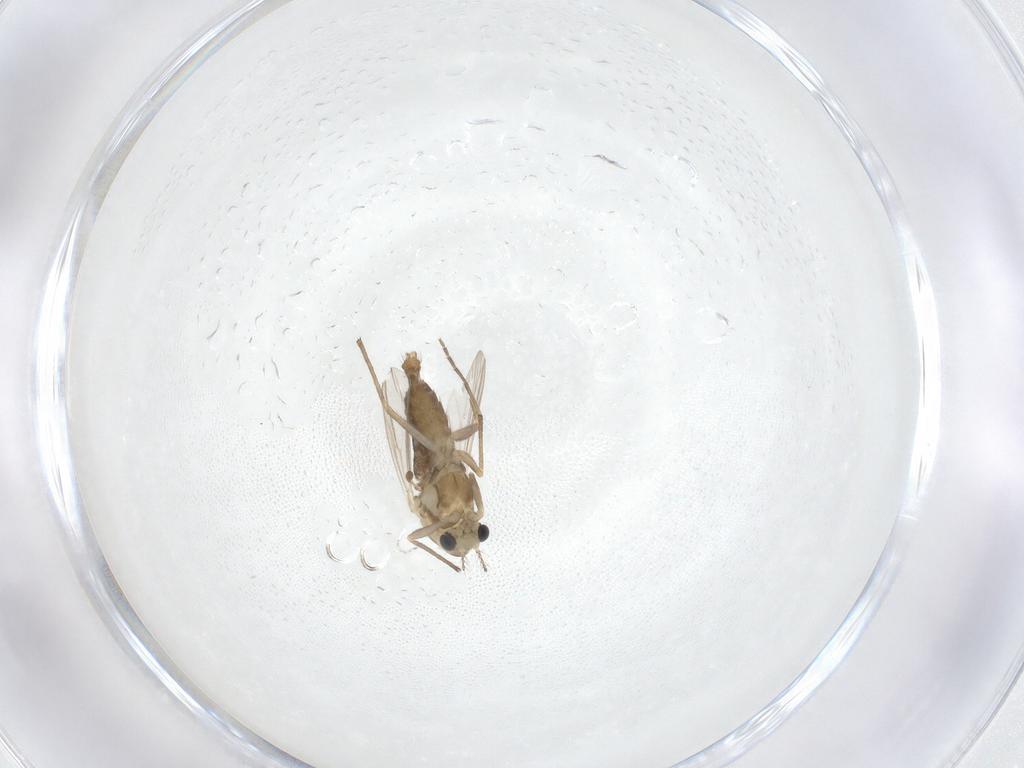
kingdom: Animalia
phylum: Arthropoda
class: Insecta
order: Diptera
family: Chironomidae
